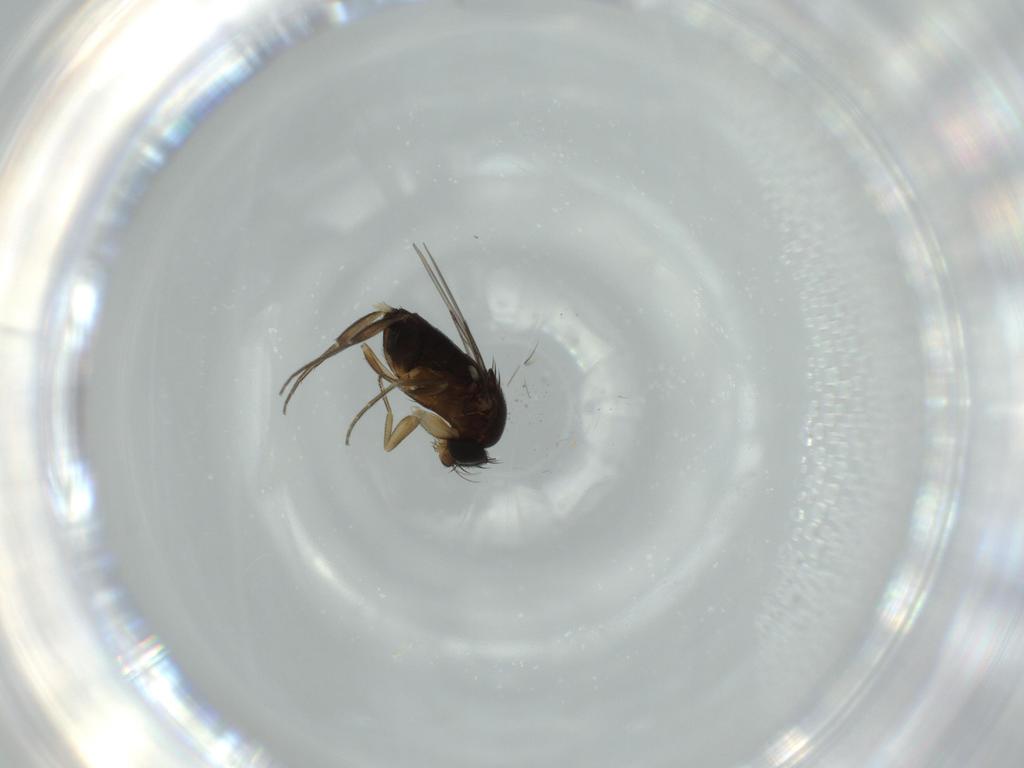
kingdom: Animalia
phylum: Arthropoda
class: Insecta
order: Diptera
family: Phoridae
